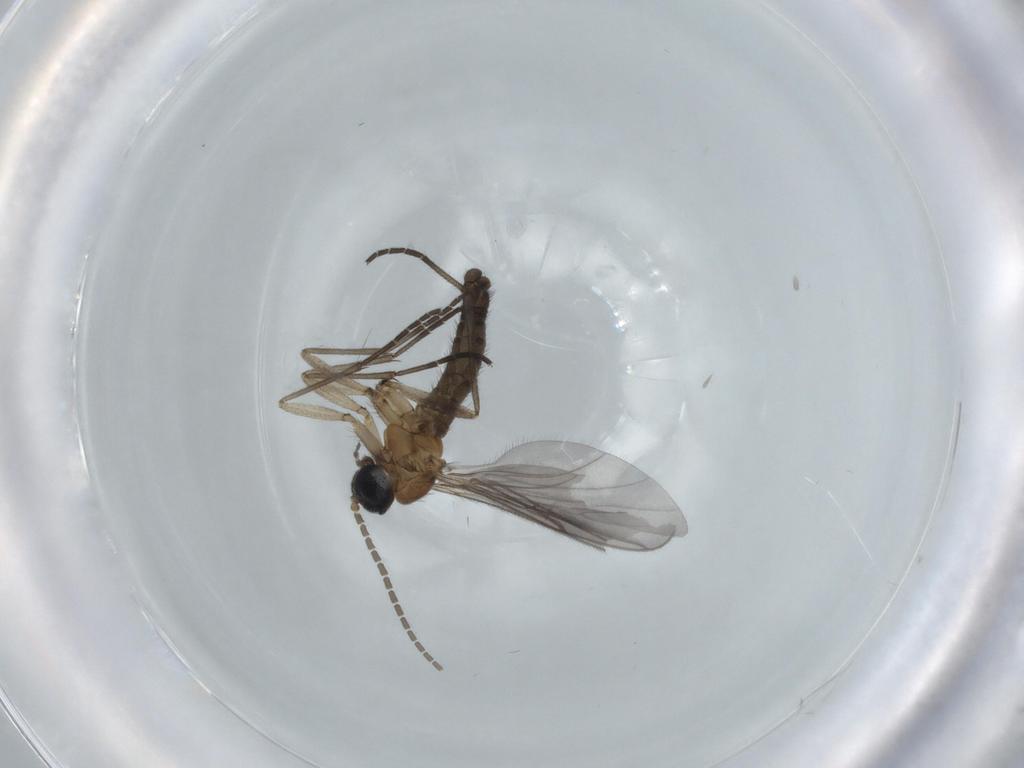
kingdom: Animalia
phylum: Arthropoda
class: Insecta
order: Diptera
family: Sciaridae
